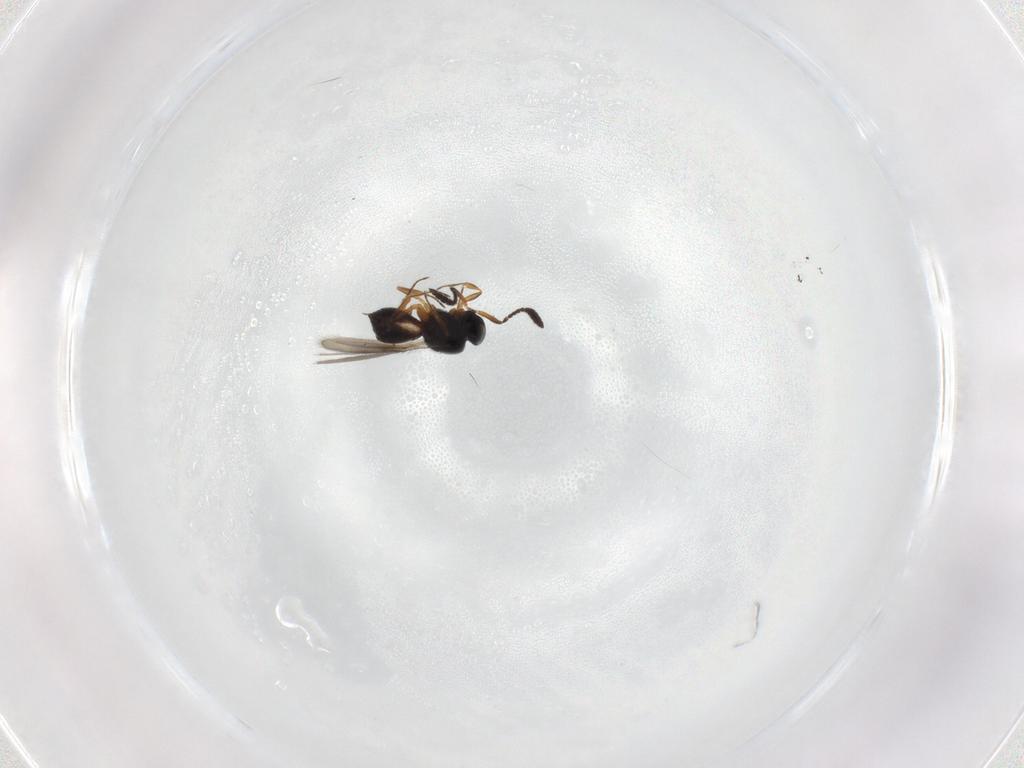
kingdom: Animalia
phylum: Arthropoda
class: Insecta
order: Hymenoptera
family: Scelionidae
